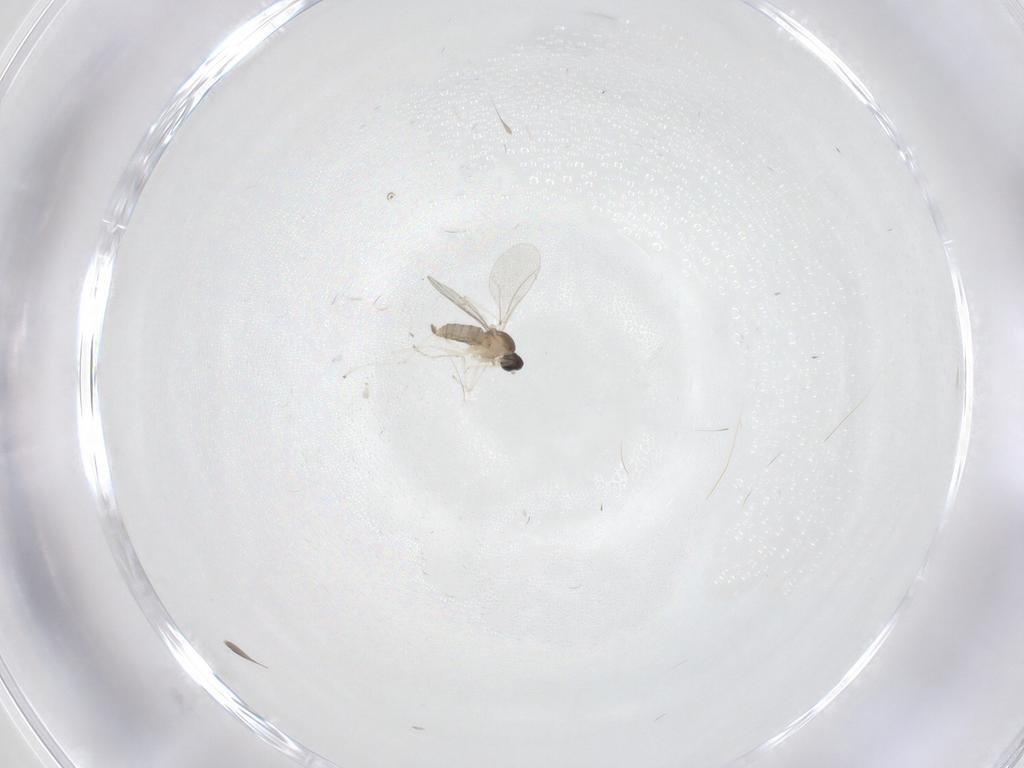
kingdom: Animalia
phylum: Arthropoda
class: Insecta
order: Diptera
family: Cecidomyiidae
